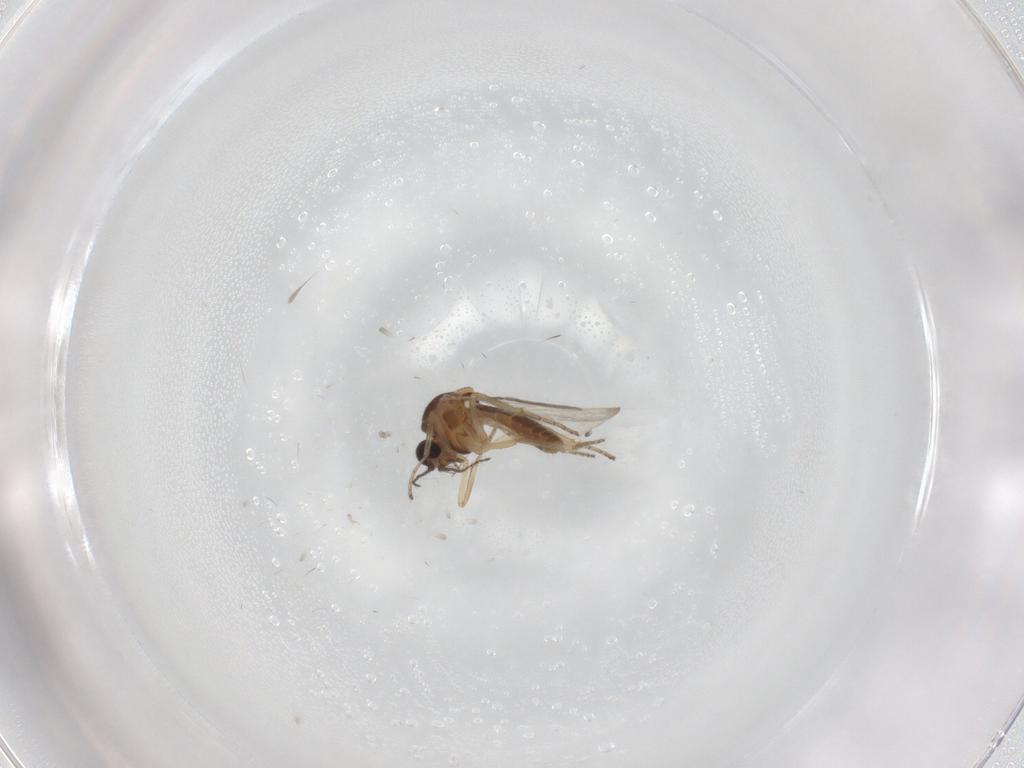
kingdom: Animalia
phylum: Arthropoda
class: Insecta
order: Diptera
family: Ceratopogonidae
